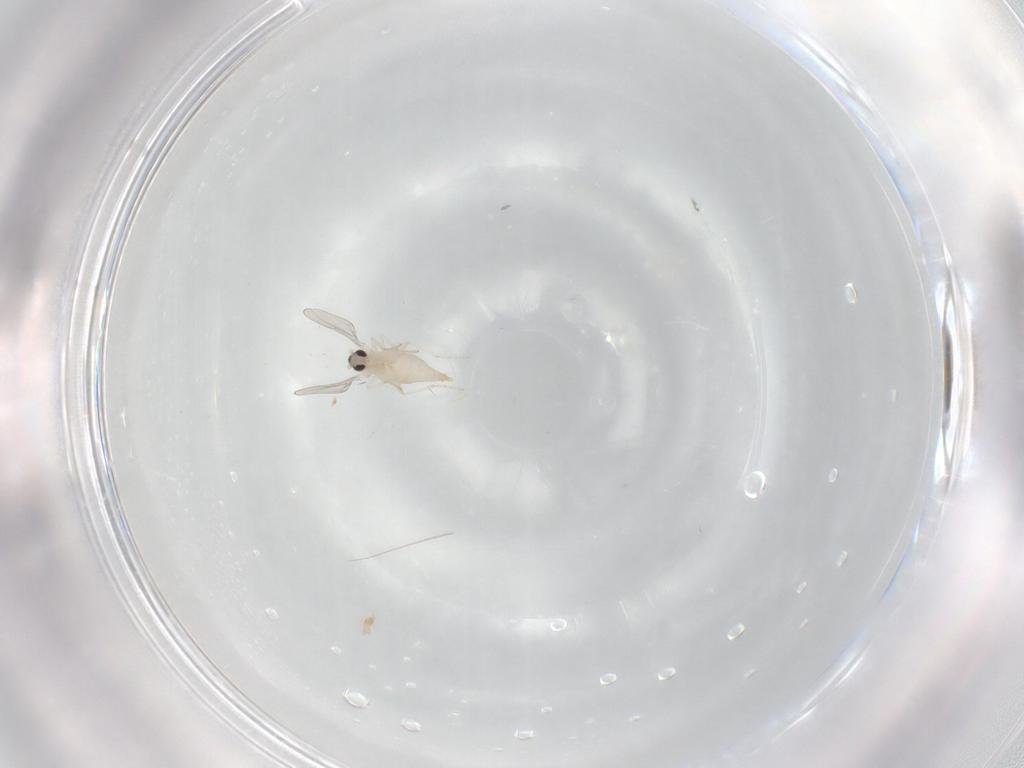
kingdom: Animalia
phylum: Arthropoda
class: Insecta
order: Diptera
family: Cecidomyiidae
